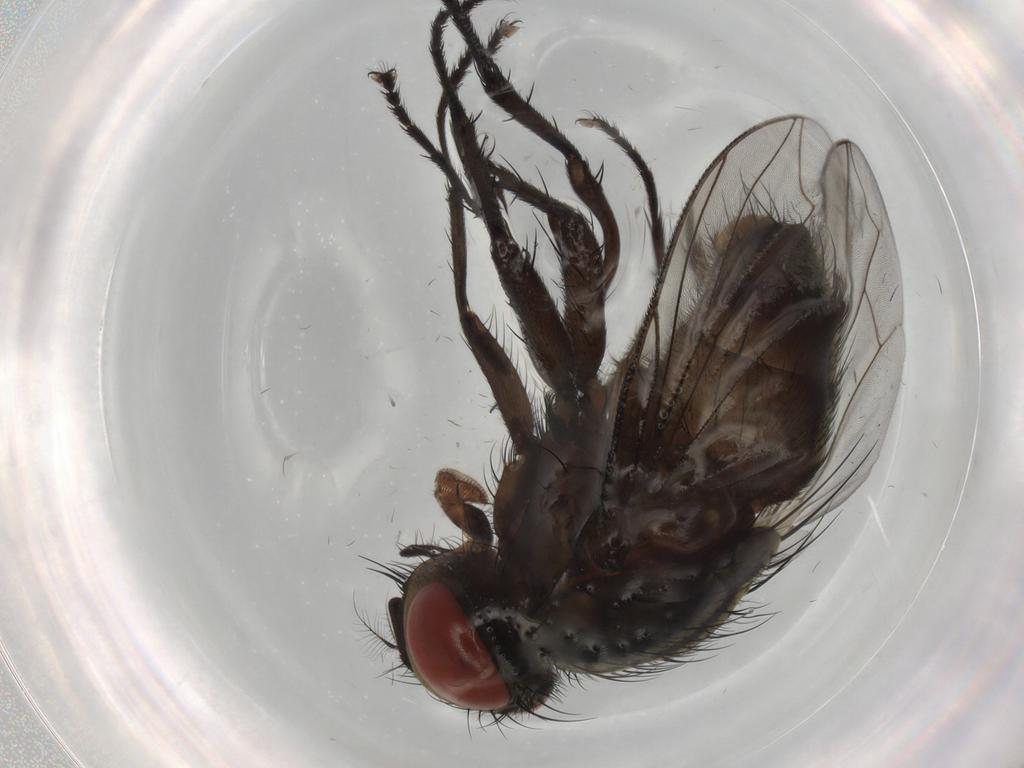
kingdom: Animalia
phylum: Arthropoda
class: Insecta
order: Diptera
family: Sarcophagidae
